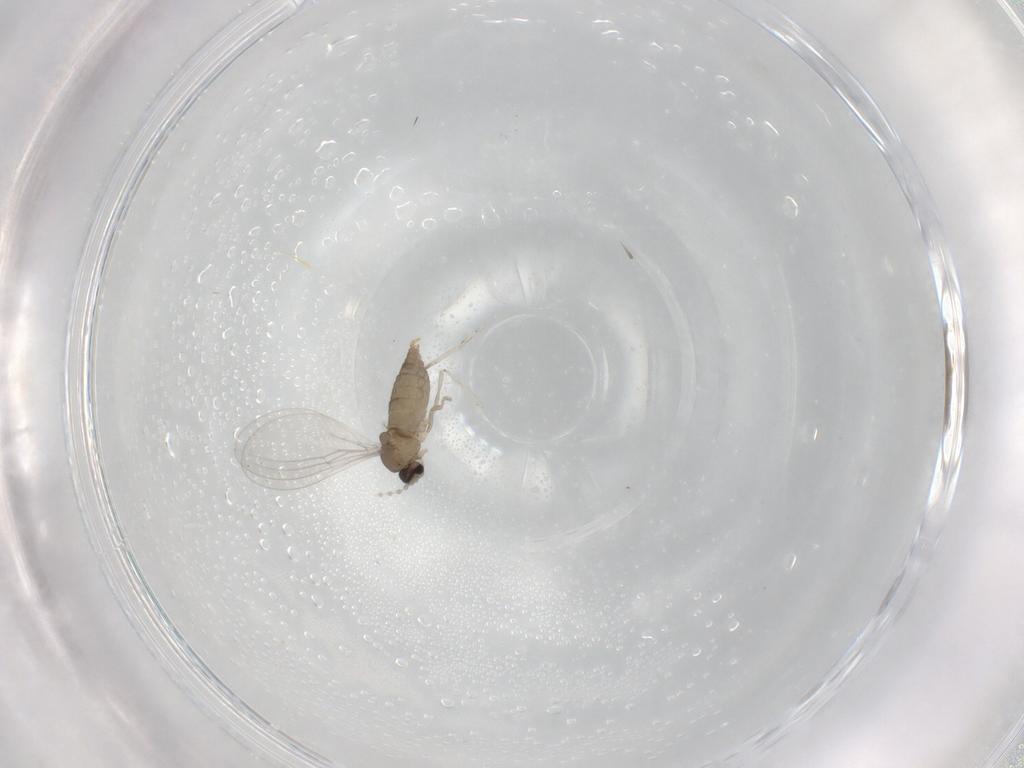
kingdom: Animalia
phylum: Arthropoda
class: Insecta
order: Diptera
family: Cecidomyiidae
